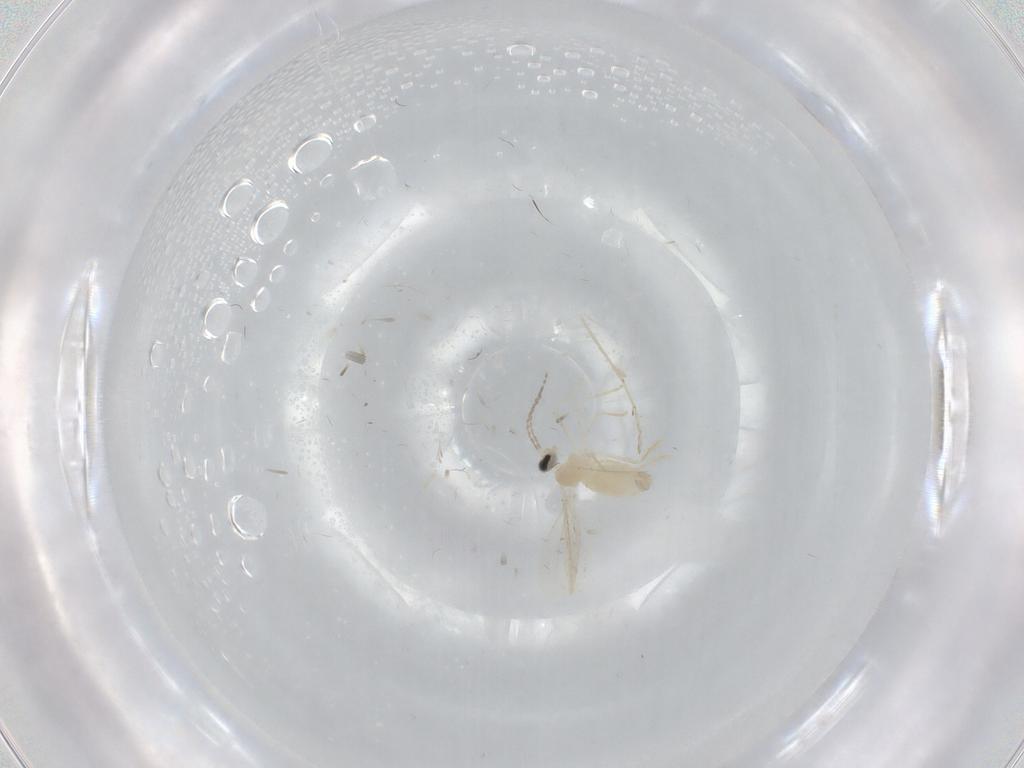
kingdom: Animalia
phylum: Arthropoda
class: Insecta
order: Diptera
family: Cecidomyiidae
